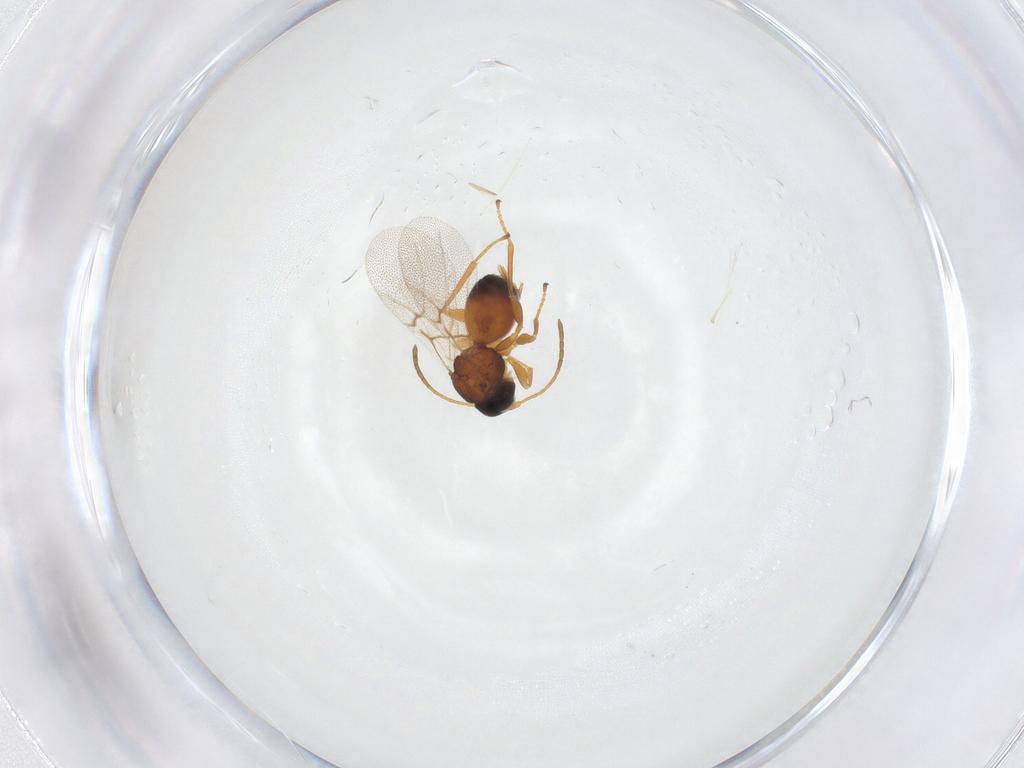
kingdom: Animalia
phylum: Arthropoda
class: Insecta
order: Hymenoptera
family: Cynipidae
